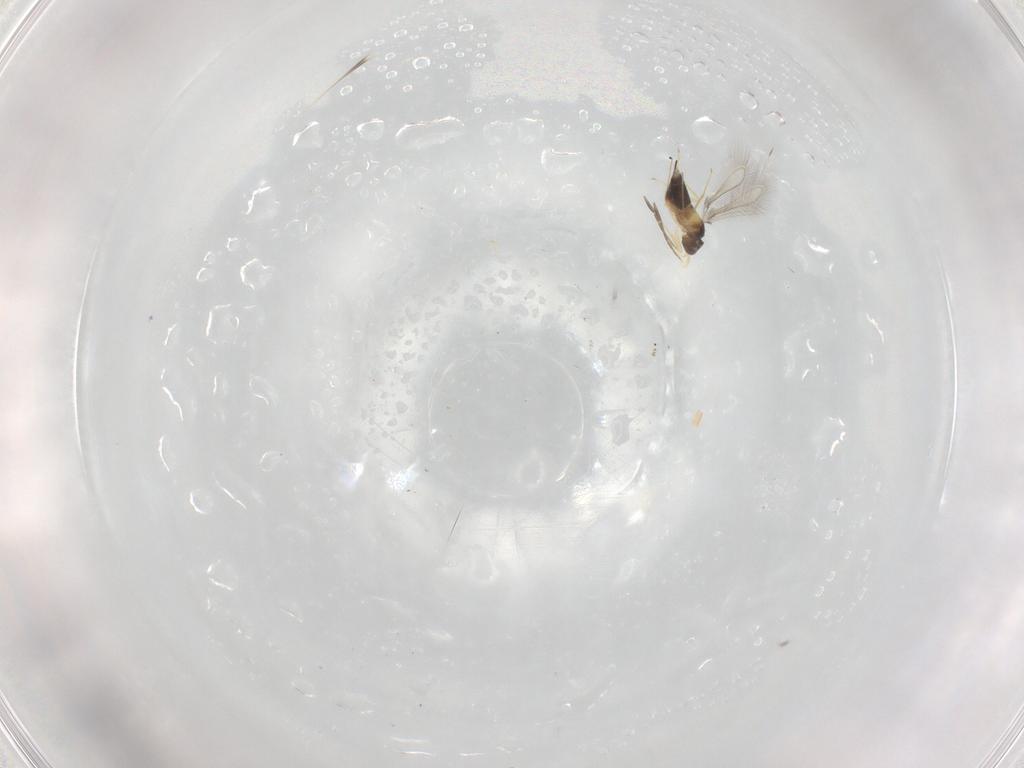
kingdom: Animalia
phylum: Arthropoda
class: Insecta
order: Hymenoptera
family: Mymaridae
